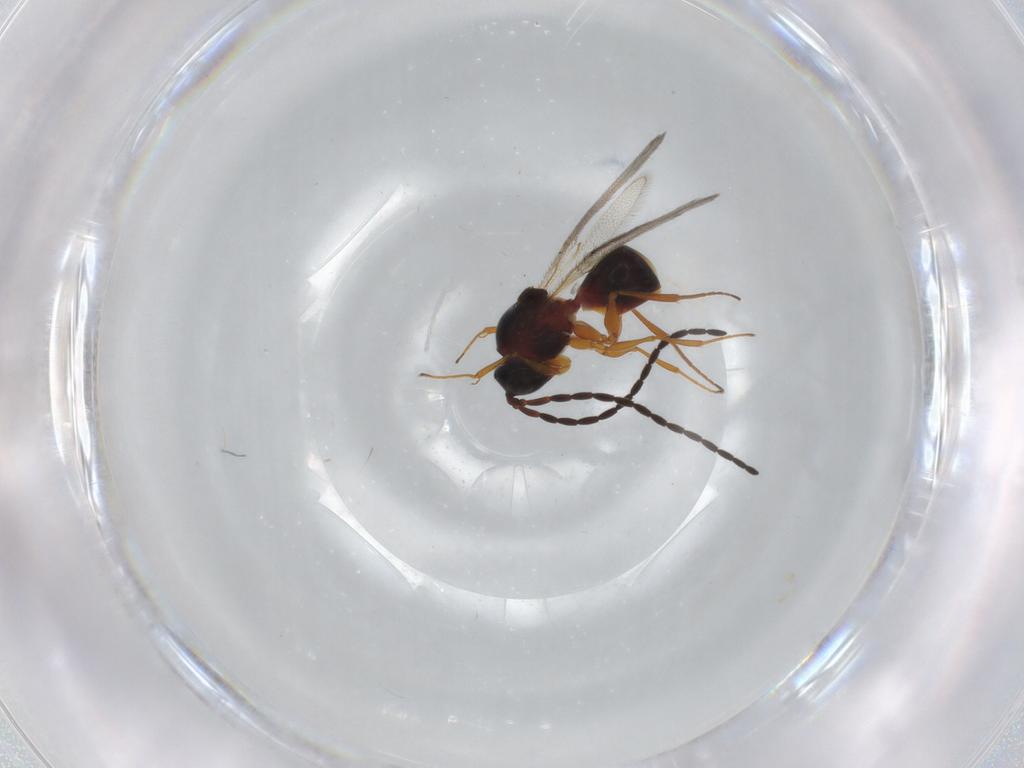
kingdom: Animalia
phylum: Arthropoda
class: Insecta
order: Hymenoptera
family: Figitidae
